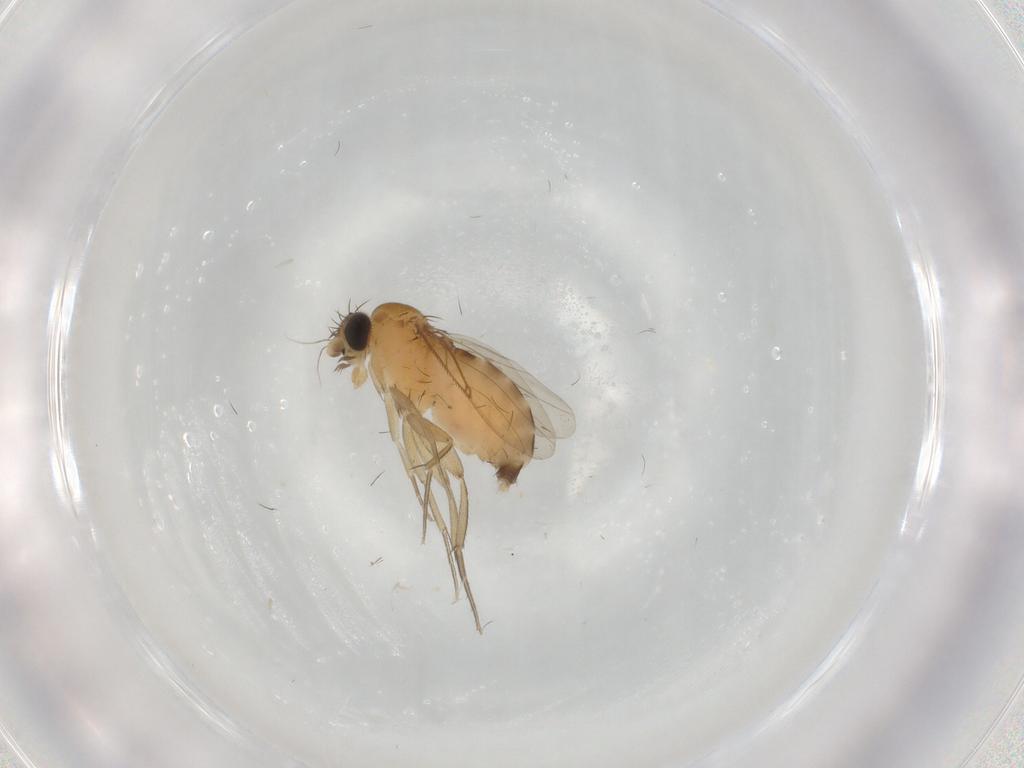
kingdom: Animalia
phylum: Arthropoda
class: Insecta
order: Diptera
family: Phoridae
